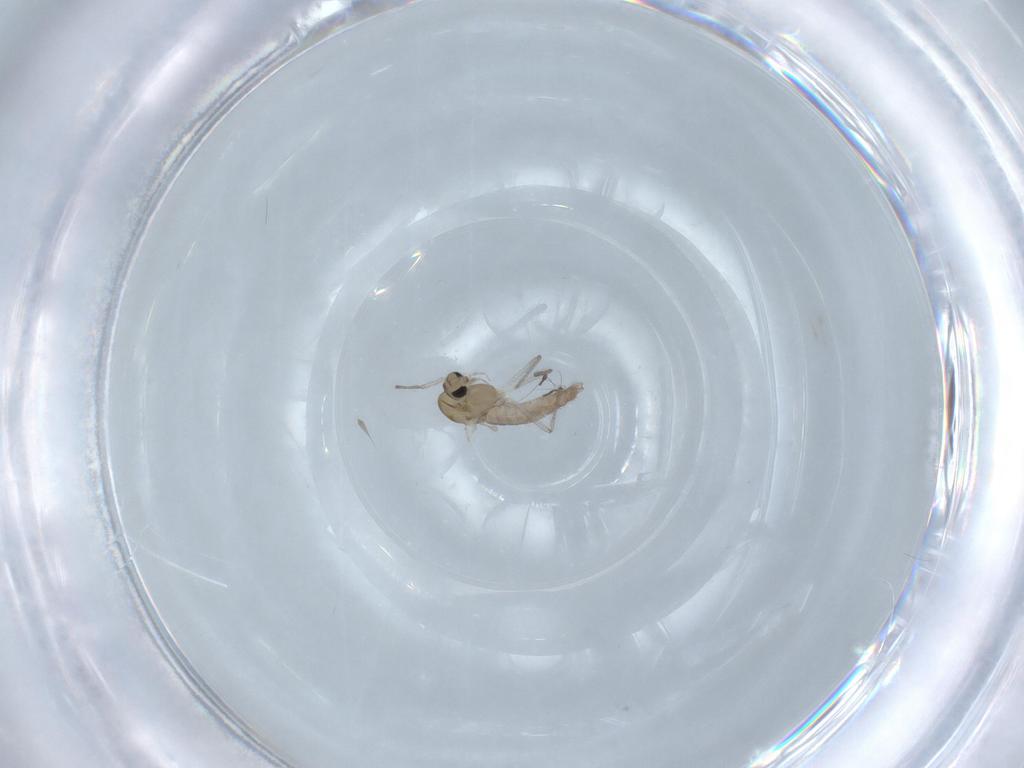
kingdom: Animalia
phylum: Arthropoda
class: Insecta
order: Diptera
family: Chironomidae
